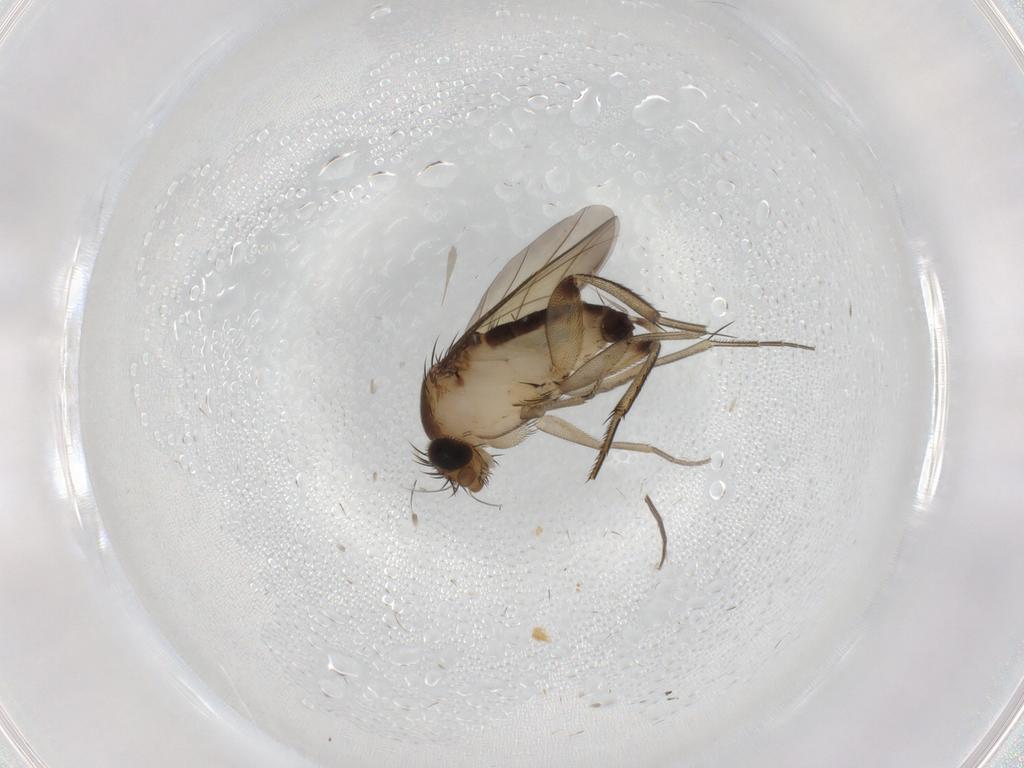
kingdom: Animalia
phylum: Arthropoda
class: Insecta
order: Diptera
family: Phoridae
